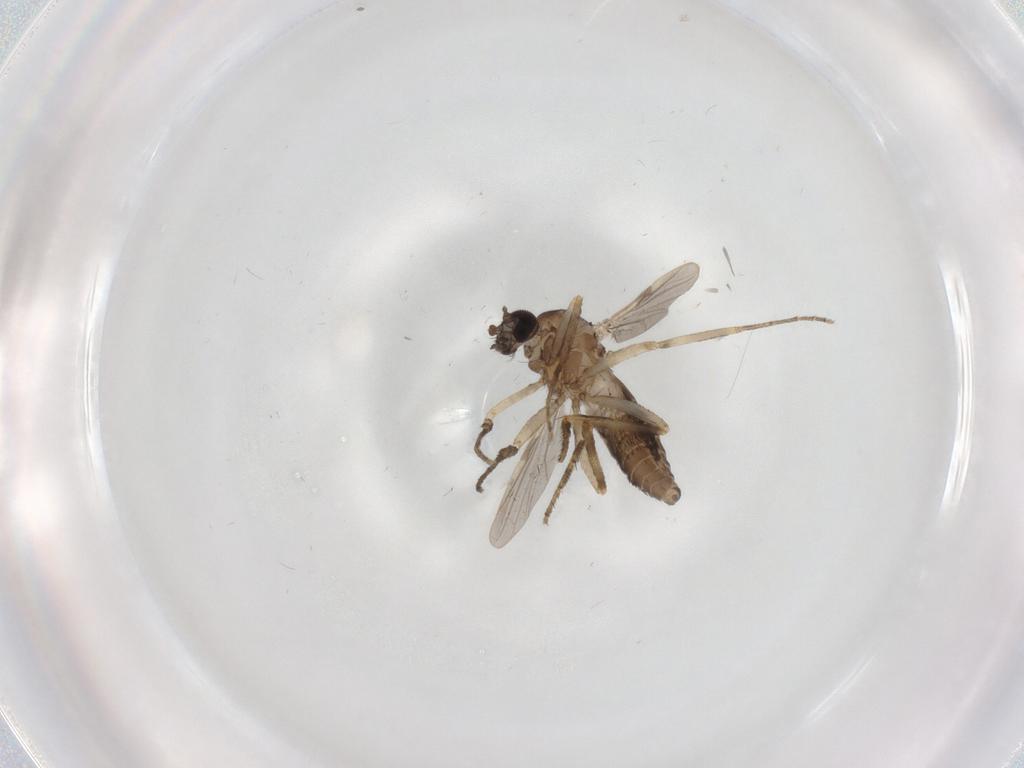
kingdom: Animalia
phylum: Arthropoda
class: Insecta
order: Diptera
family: Ceratopogonidae
